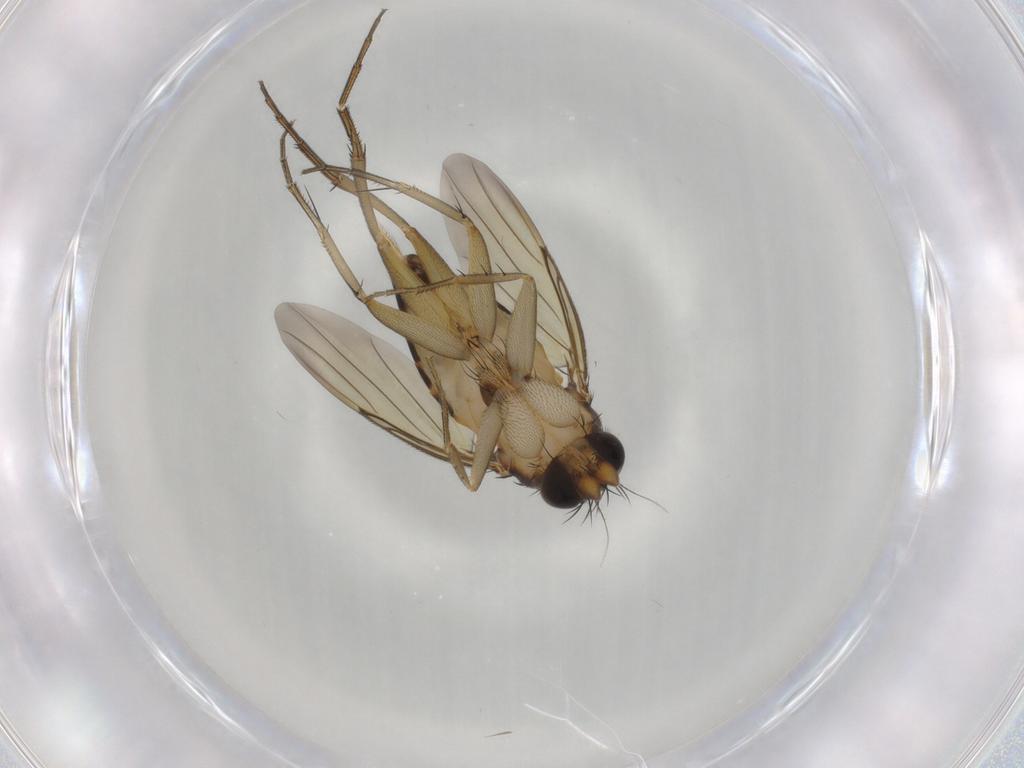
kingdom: Animalia
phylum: Arthropoda
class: Insecta
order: Diptera
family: Phoridae
